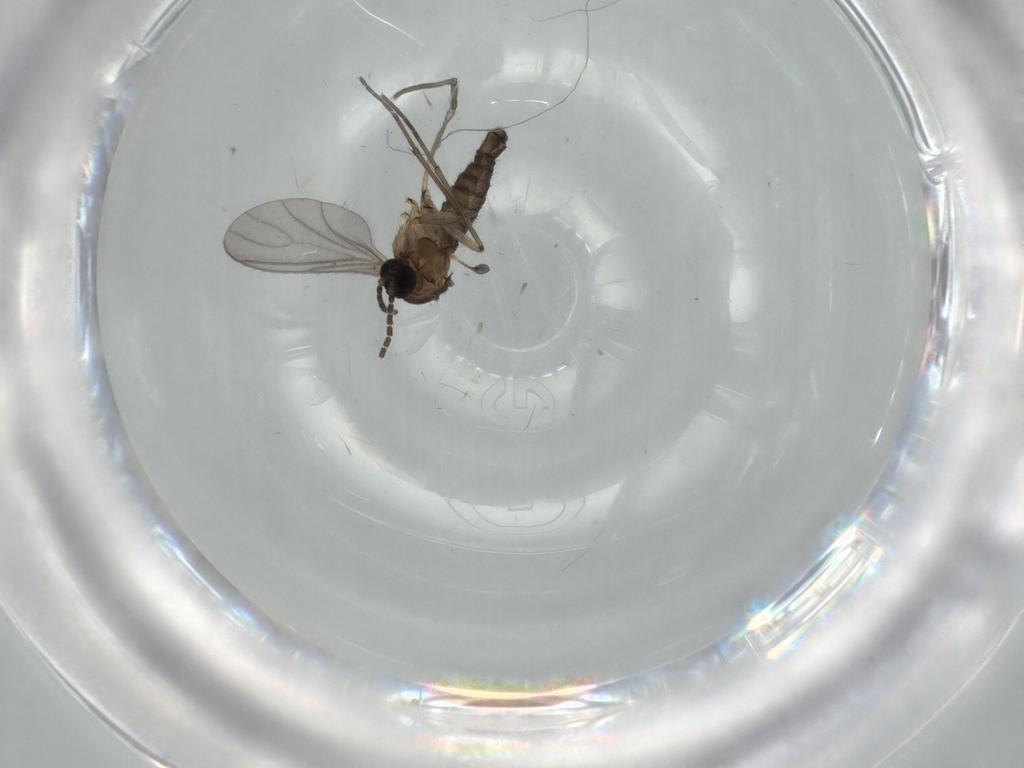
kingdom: Animalia
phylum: Arthropoda
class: Insecta
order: Diptera
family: Sciaridae
